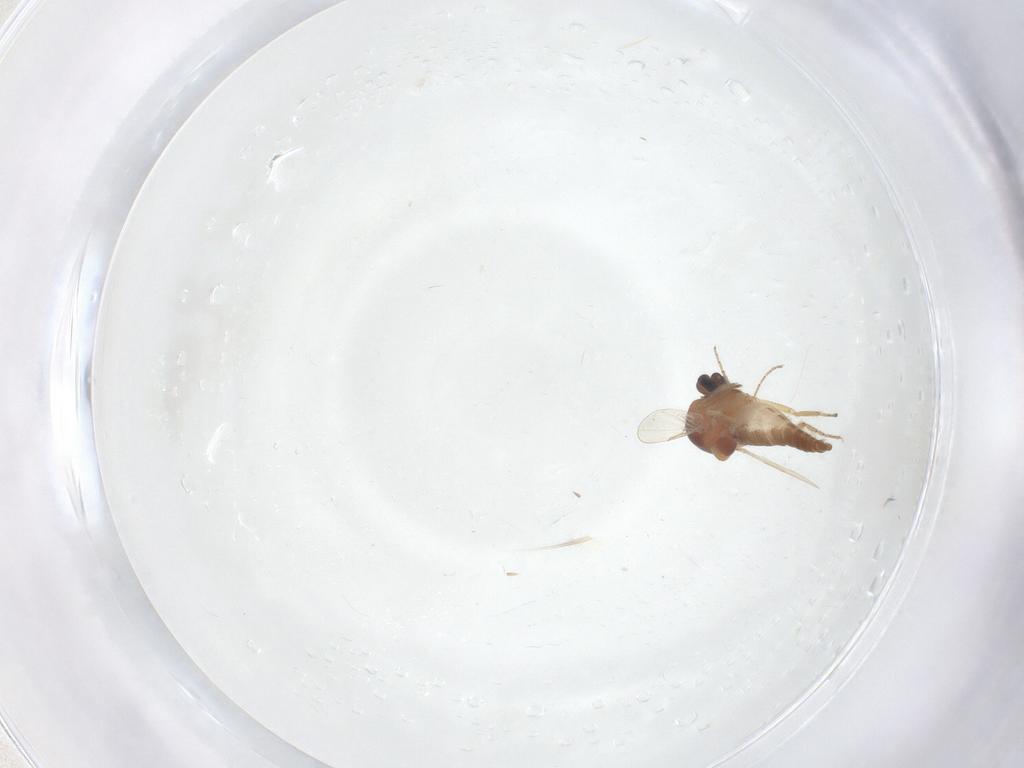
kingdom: Animalia
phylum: Arthropoda
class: Insecta
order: Diptera
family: Ceratopogonidae
